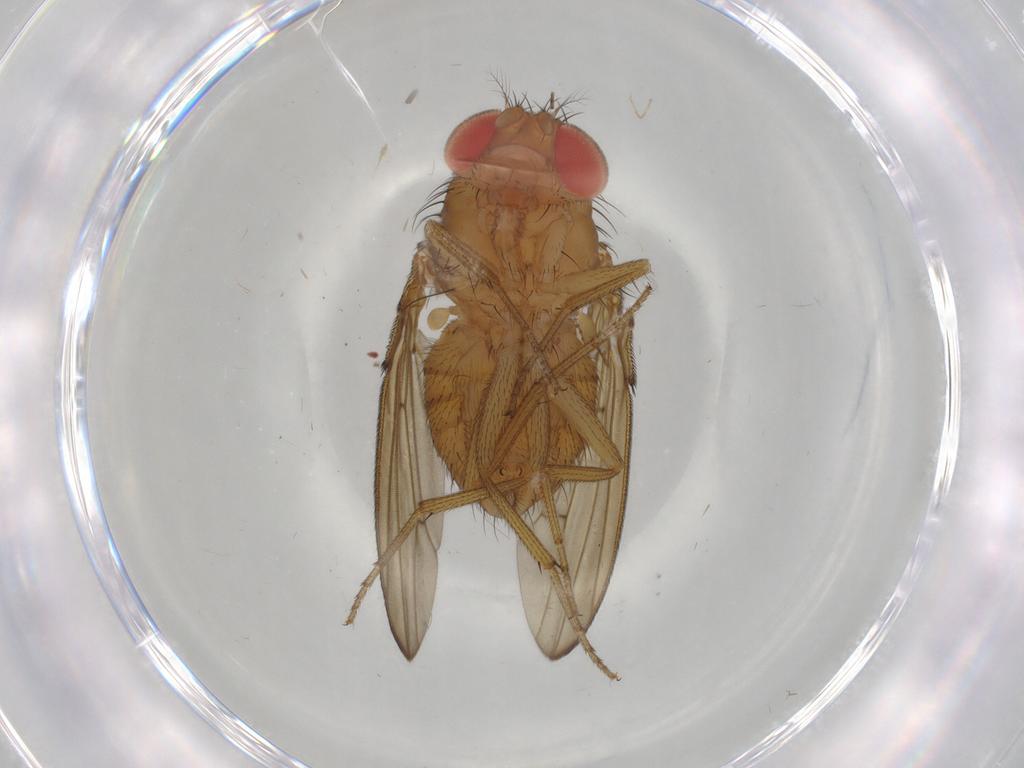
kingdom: Animalia
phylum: Arthropoda
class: Insecta
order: Diptera
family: Drosophilidae
